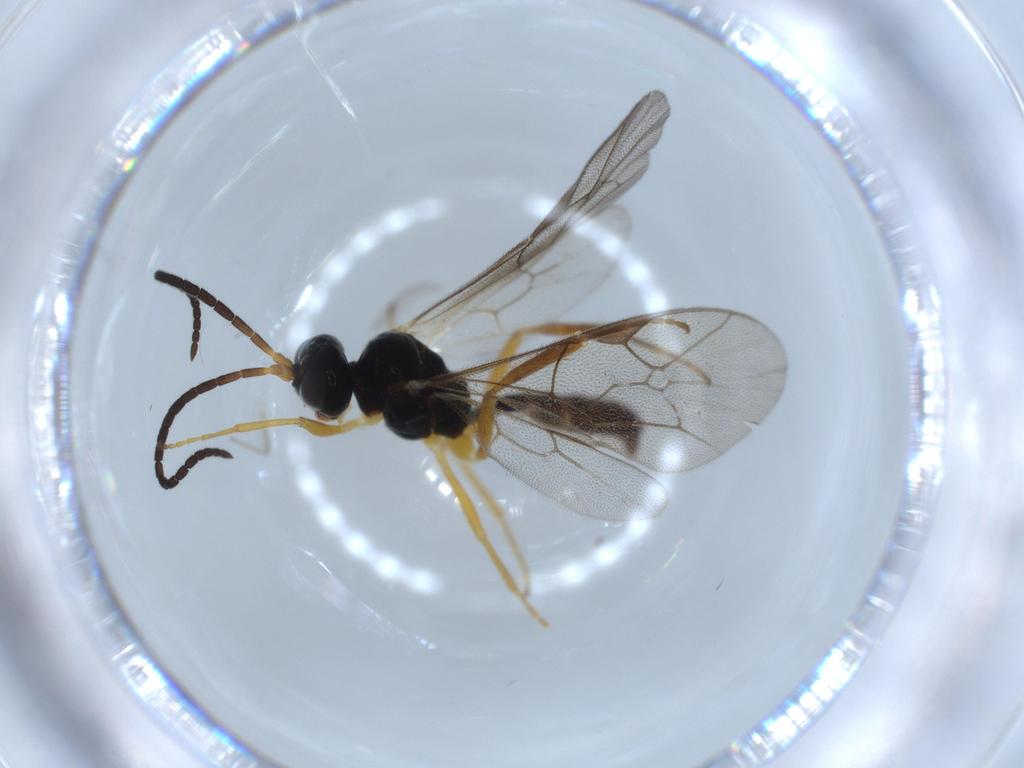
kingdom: Animalia
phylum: Arthropoda
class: Insecta
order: Hymenoptera
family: Ichneumonidae
